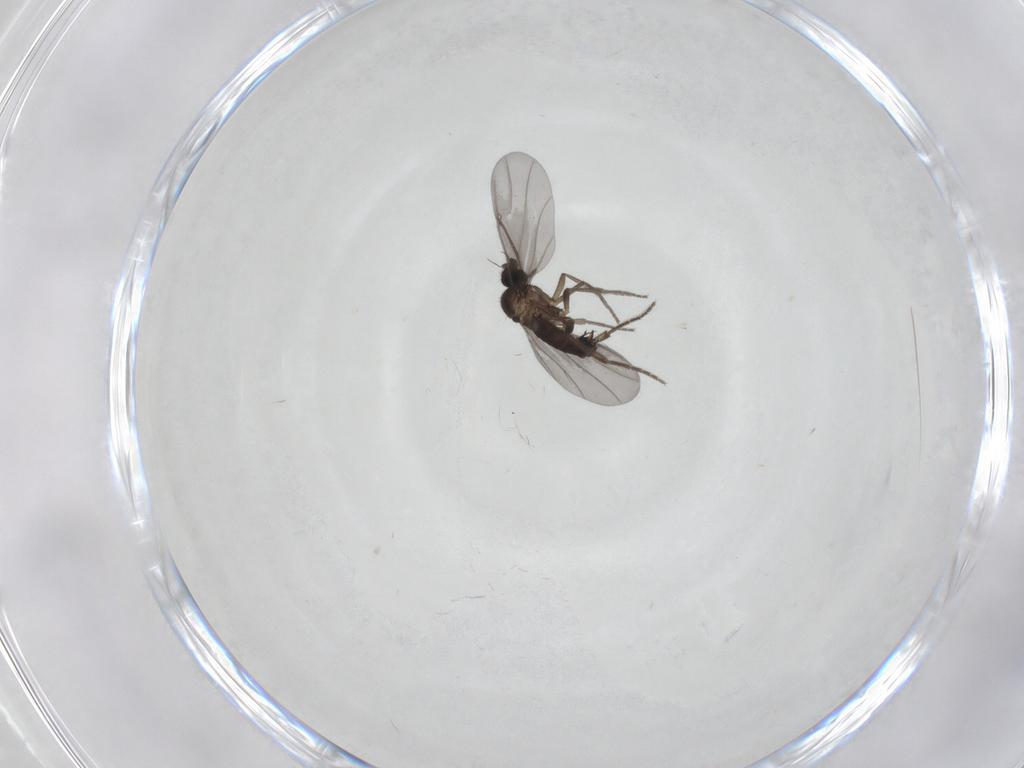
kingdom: Animalia
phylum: Arthropoda
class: Insecta
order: Diptera
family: Phoridae
